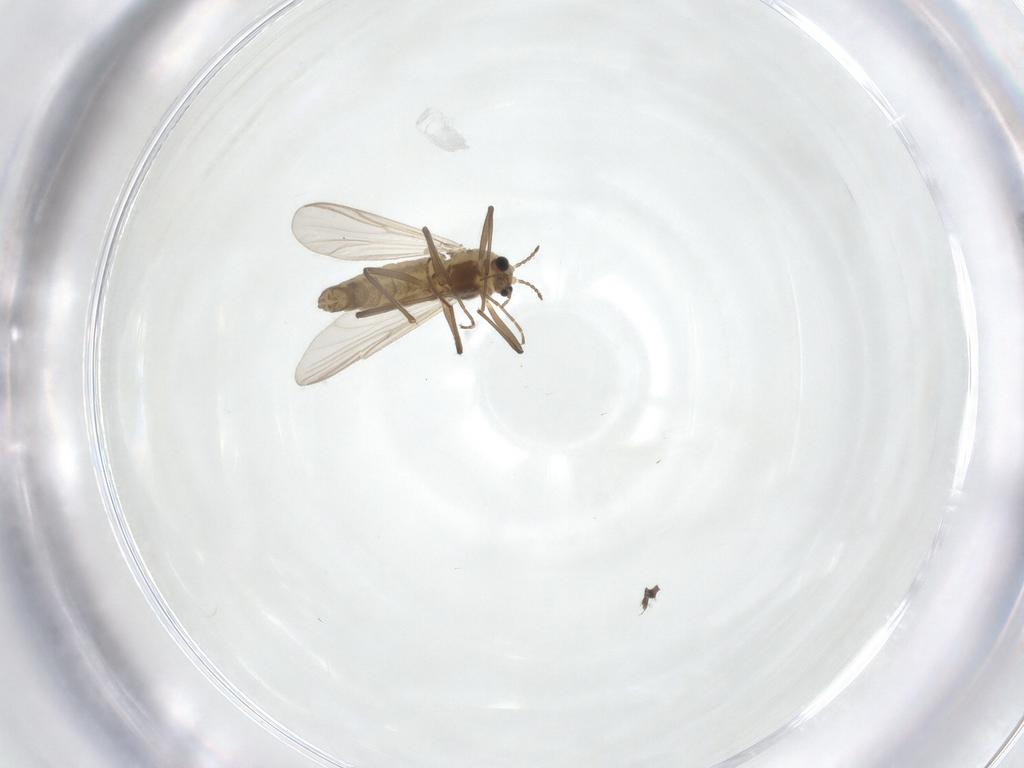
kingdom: Animalia
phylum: Arthropoda
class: Insecta
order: Diptera
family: Chironomidae
